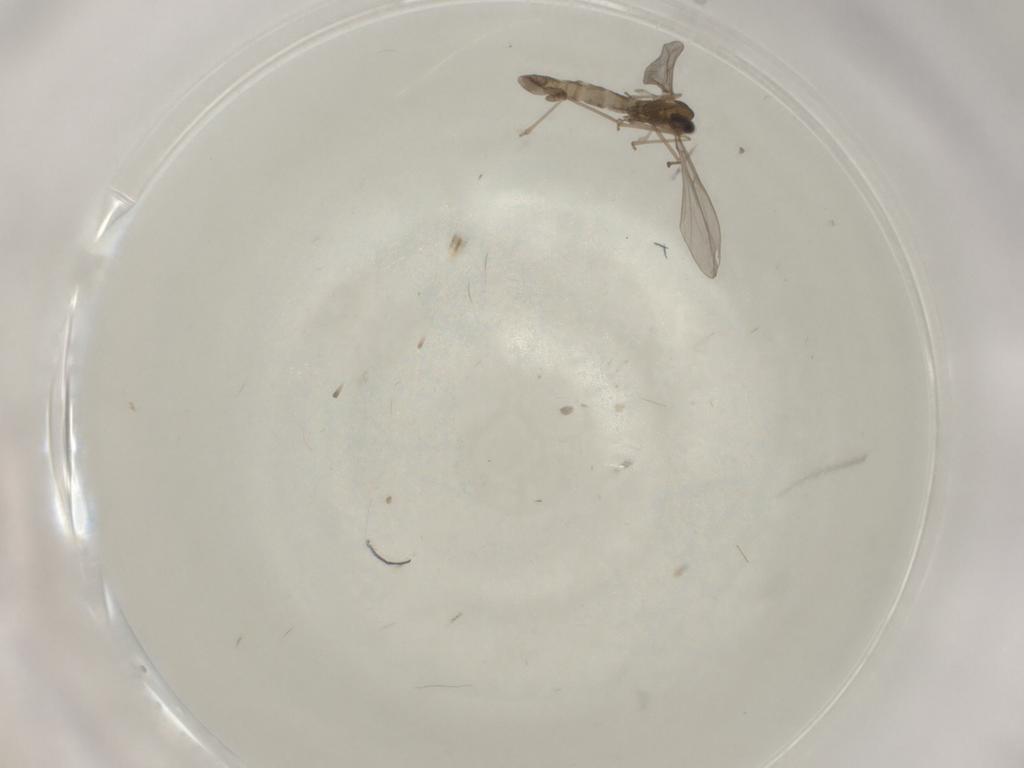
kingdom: Animalia
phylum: Arthropoda
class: Insecta
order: Diptera
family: Cecidomyiidae
